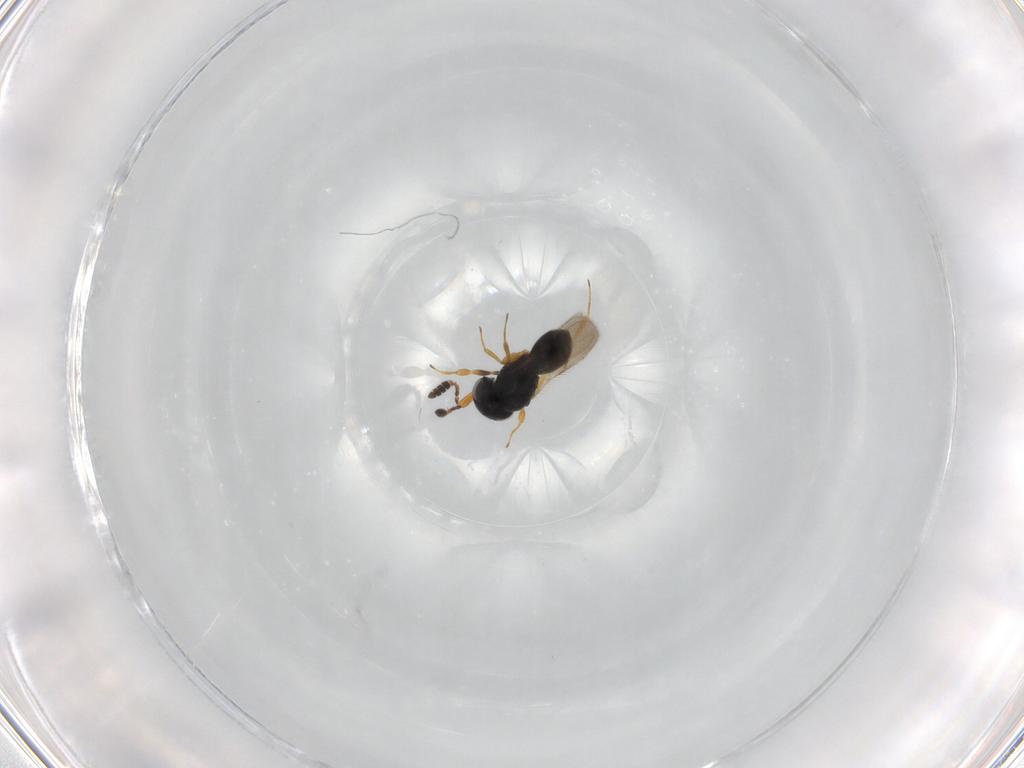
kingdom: Animalia
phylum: Arthropoda
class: Insecta
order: Hymenoptera
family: Scelionidae
